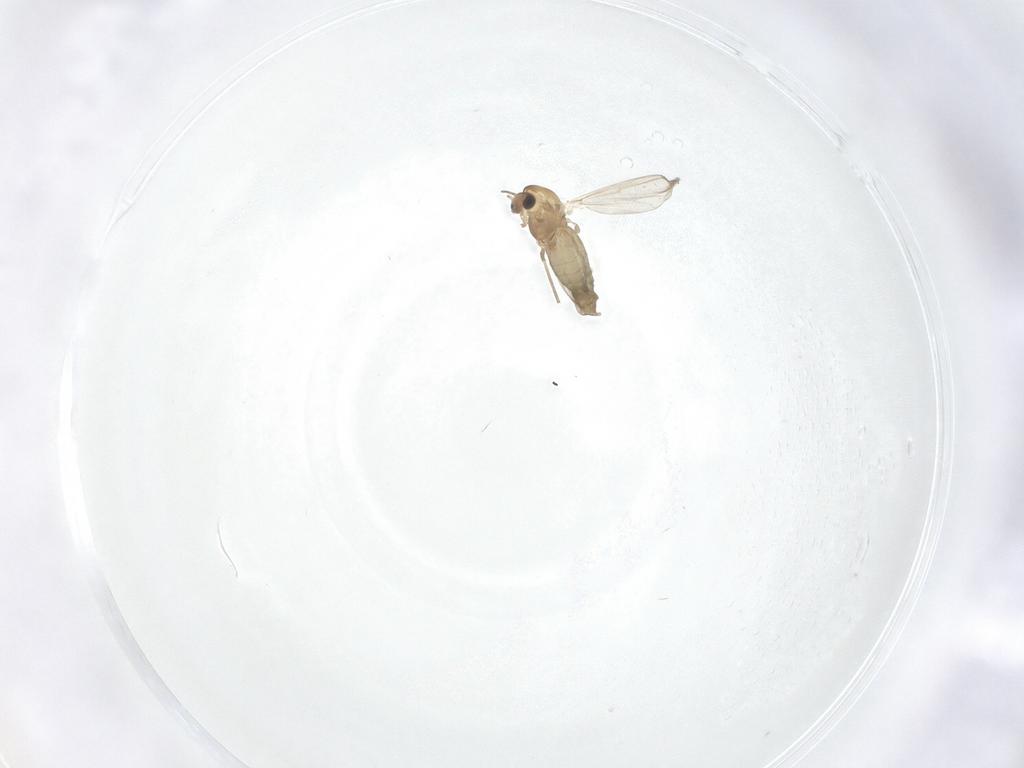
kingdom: Animalia
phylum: Arthropoda
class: Insecta
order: Diptera
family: Chironomidae
